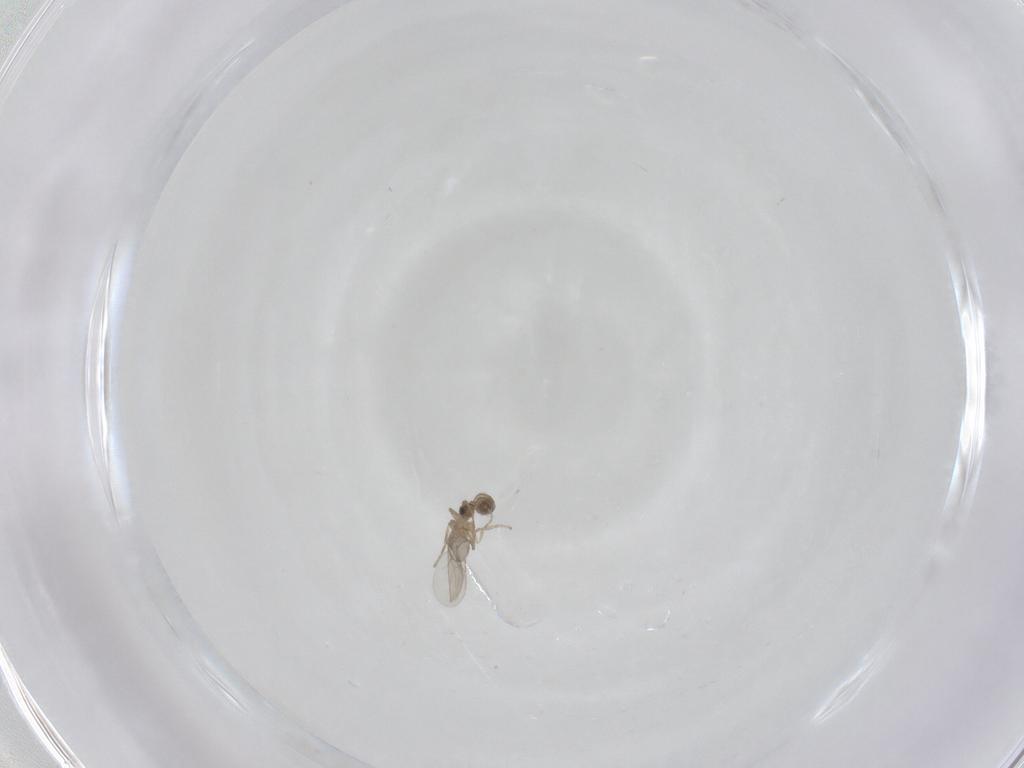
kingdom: Animalia
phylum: Arthropoda
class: Insecta
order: Diptera
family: Phoridae
